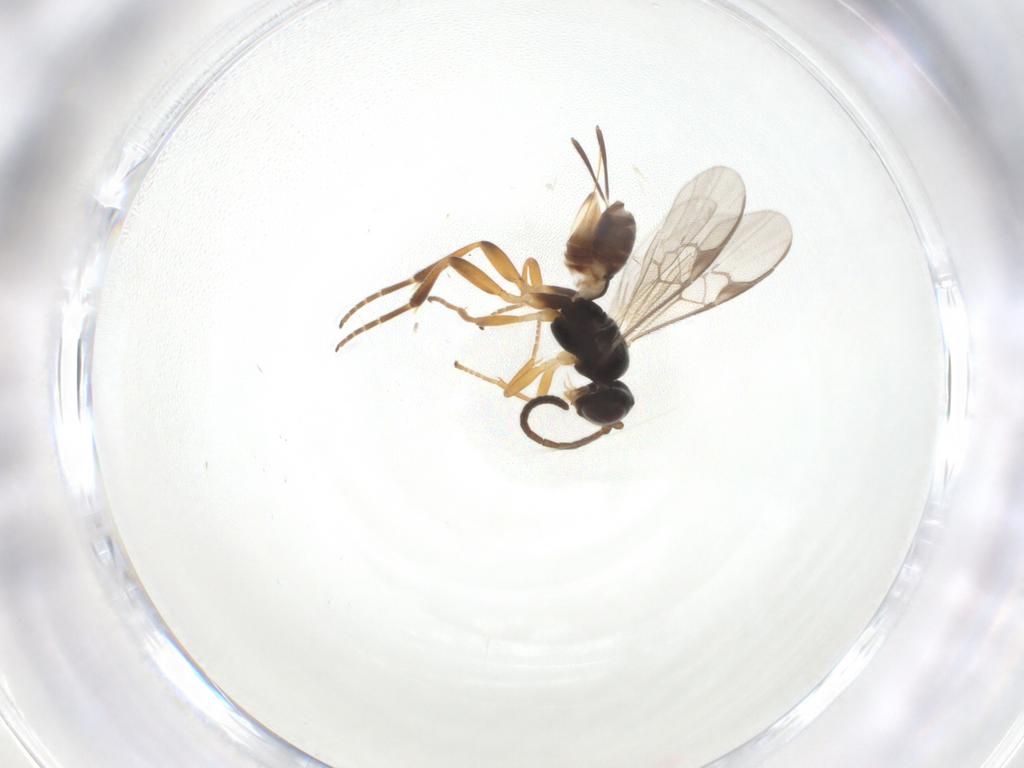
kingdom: Animalia
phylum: Arthropoda
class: Insecta
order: Hymenoptera
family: Braconidae
